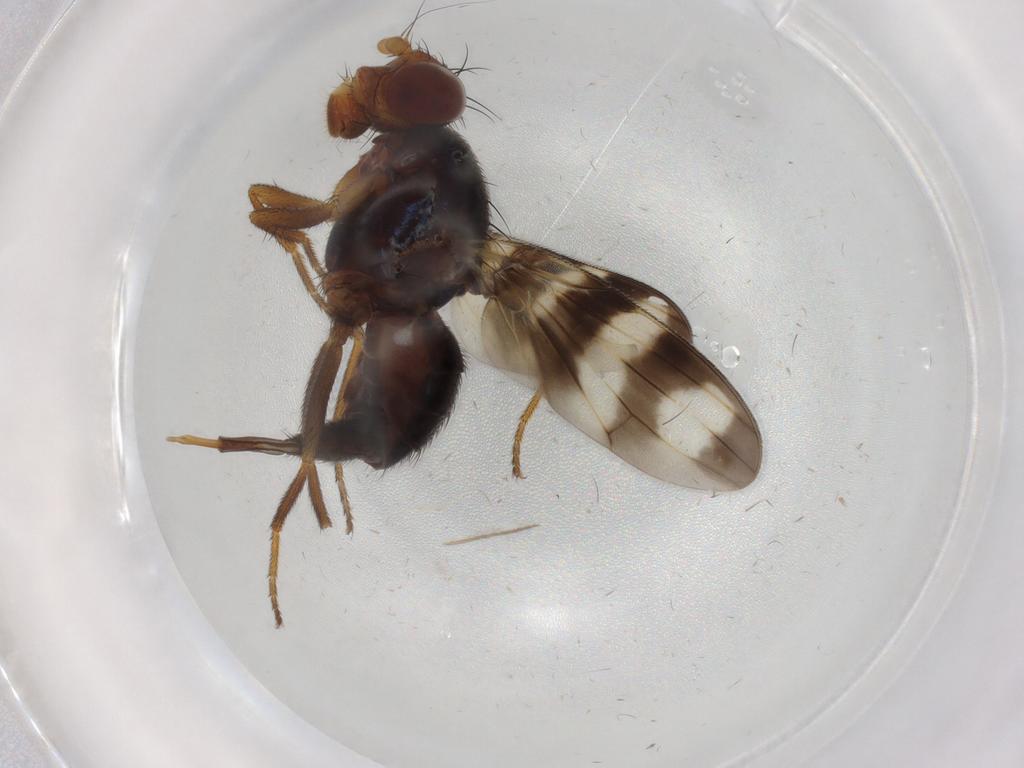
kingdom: Animalia
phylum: Arthropoda
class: Insecta
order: Diptera
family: Ulidiidae
